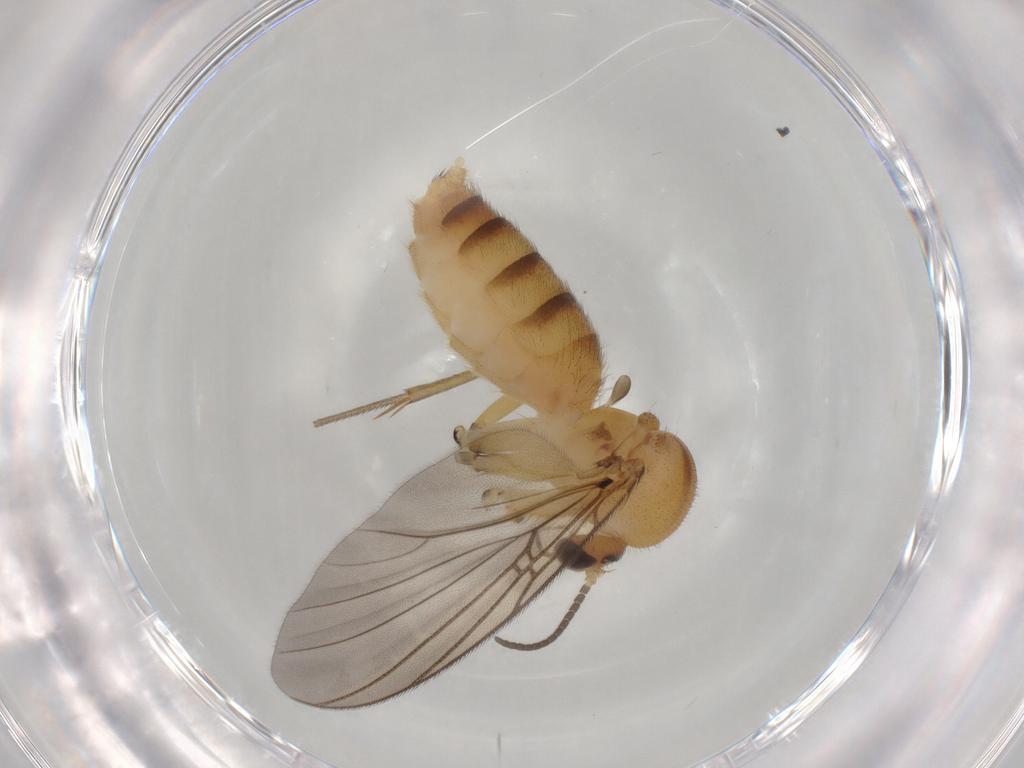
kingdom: Animalia
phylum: Arthropoda
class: Insecta
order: Diptera
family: Mycetophilidae
